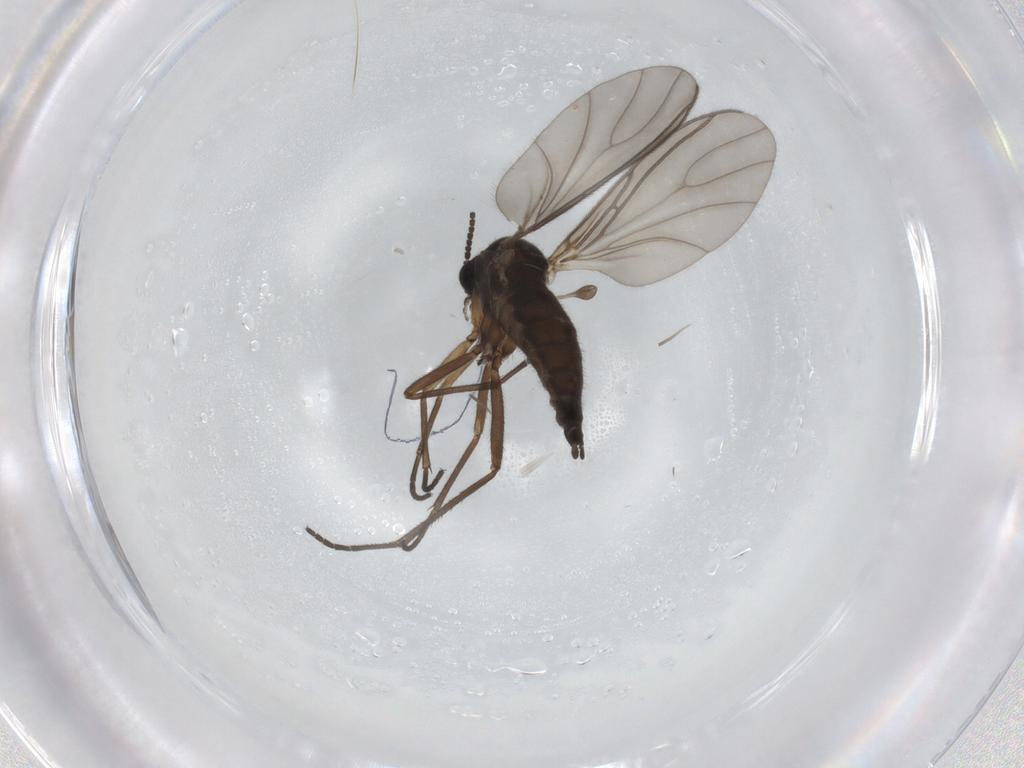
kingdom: Animalia
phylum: Arthropoda
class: Insecta
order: Diptera
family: Sciaridae
